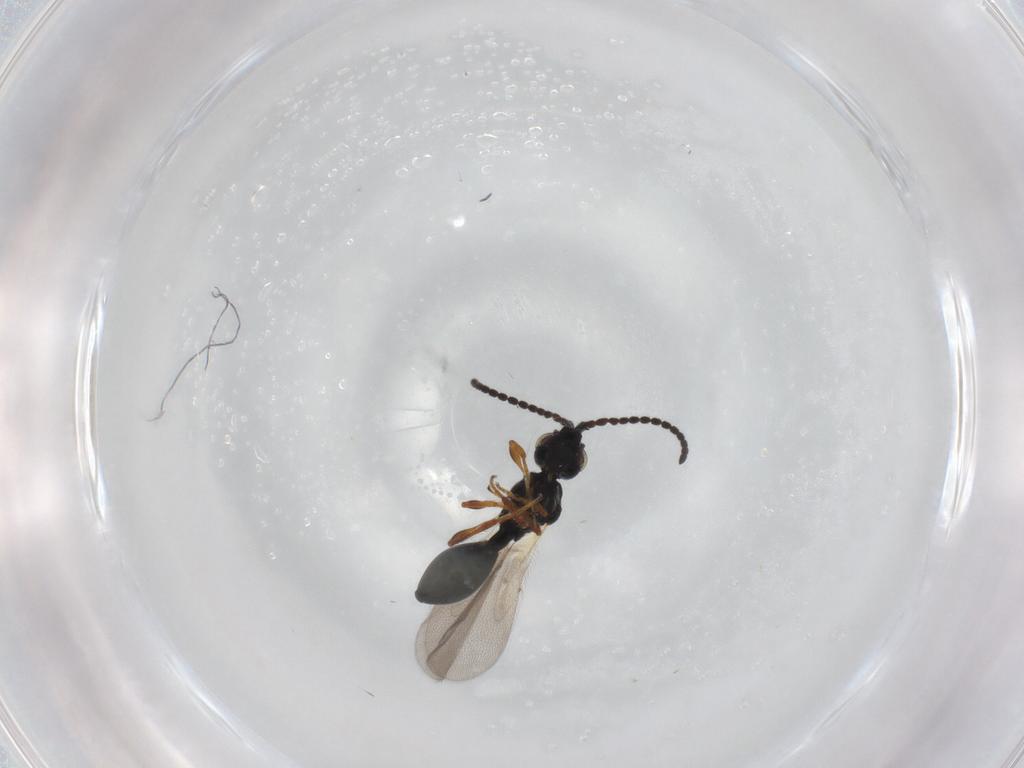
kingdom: Animalia
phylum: Arthropoda
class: Insecta
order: Hymenoptera
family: Diapriidae
